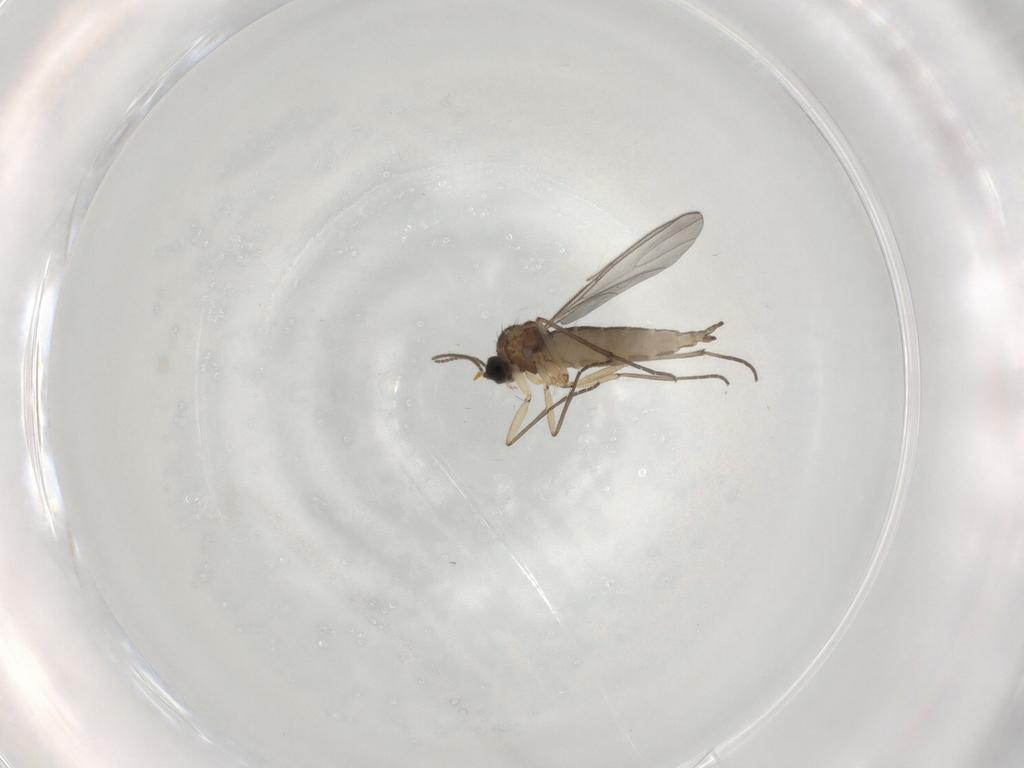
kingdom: Animalia
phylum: Arthropoda
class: Insecta
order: Diptera
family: Sciaridae
